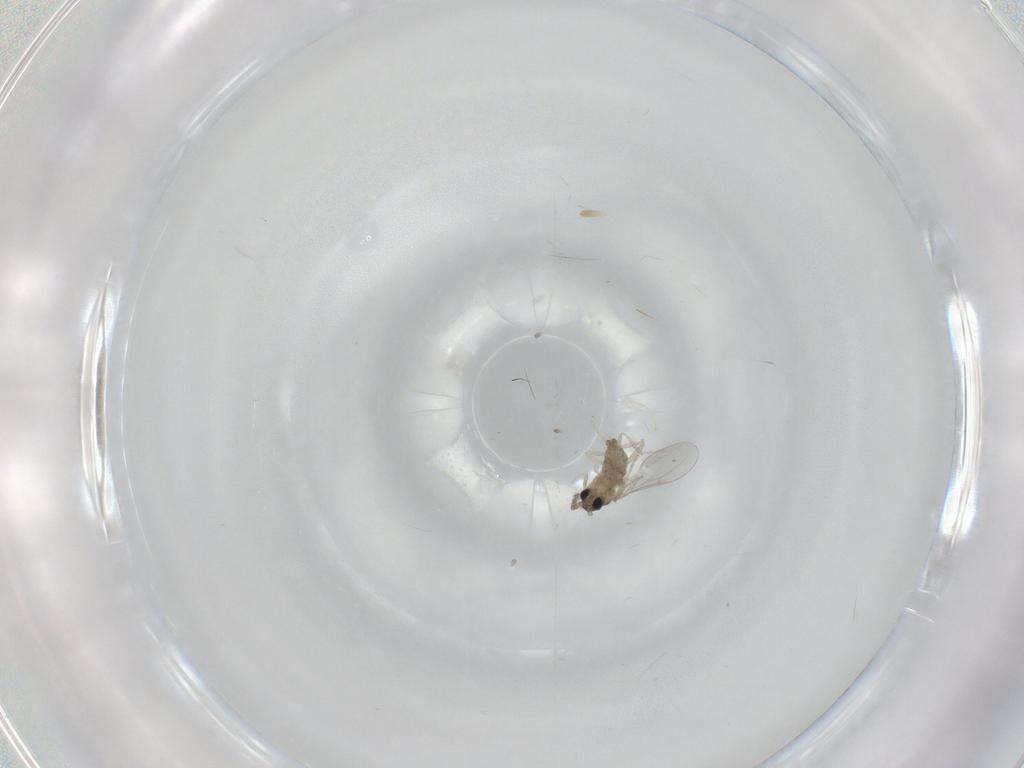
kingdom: Animalia
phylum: Arthropoda
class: Insecta
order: Diptera
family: Cecidomyiidae
